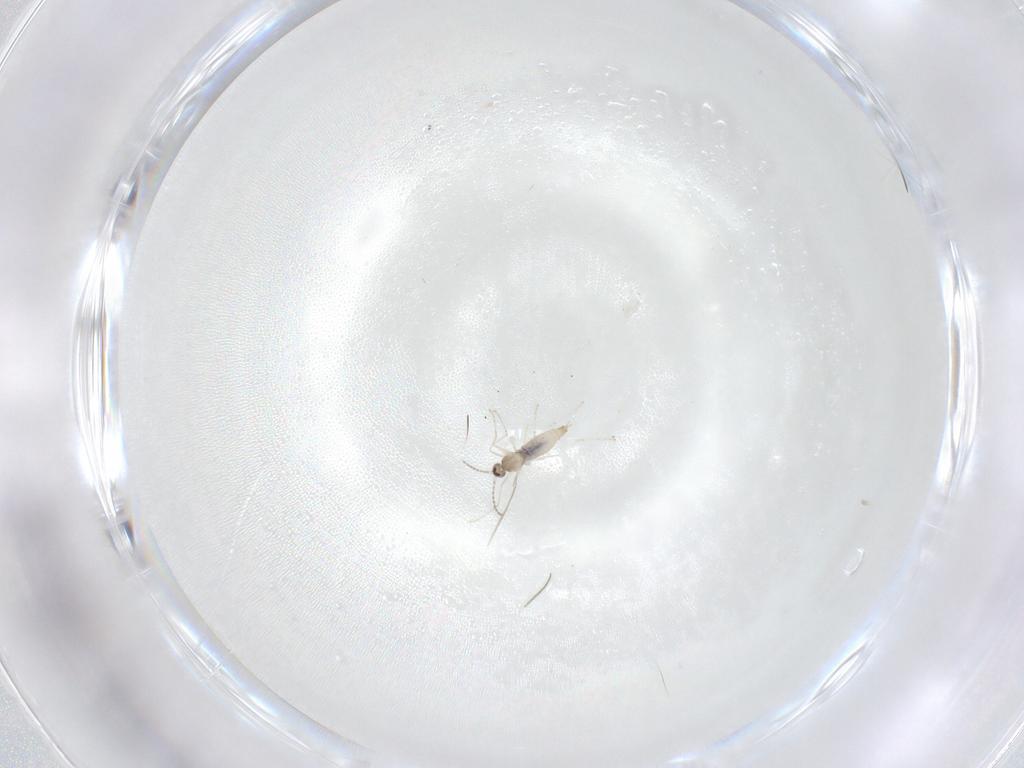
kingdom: Animalia
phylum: Arthropoda
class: Insecta
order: Diptera
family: Cecidomyiidae
